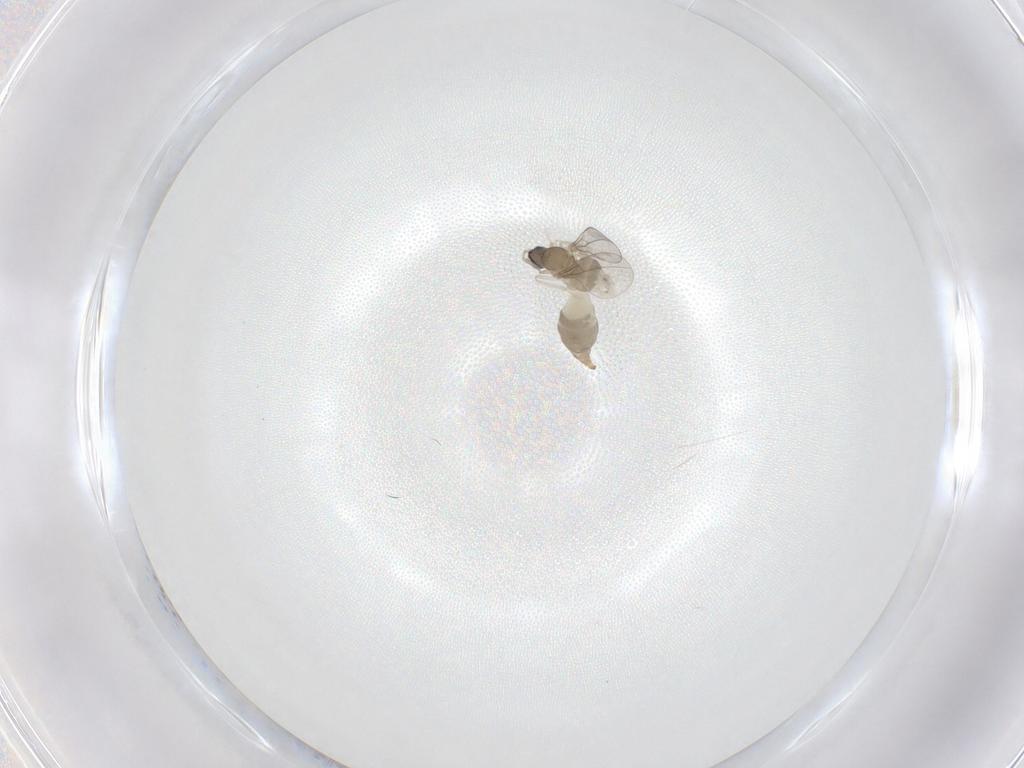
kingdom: Animalia
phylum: Arthropoda
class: Insecta
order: Diptera
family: Cecidomyiidae
